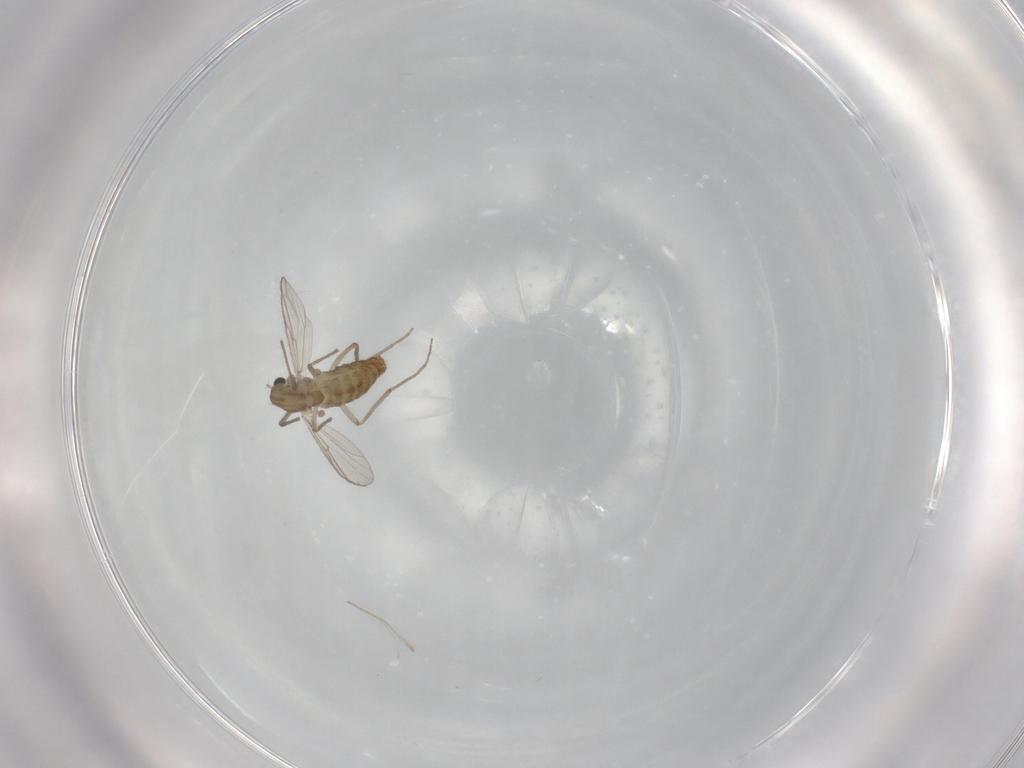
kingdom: Animalia
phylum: Arthropoda
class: Insecta
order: Diptera
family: Chironomidae
